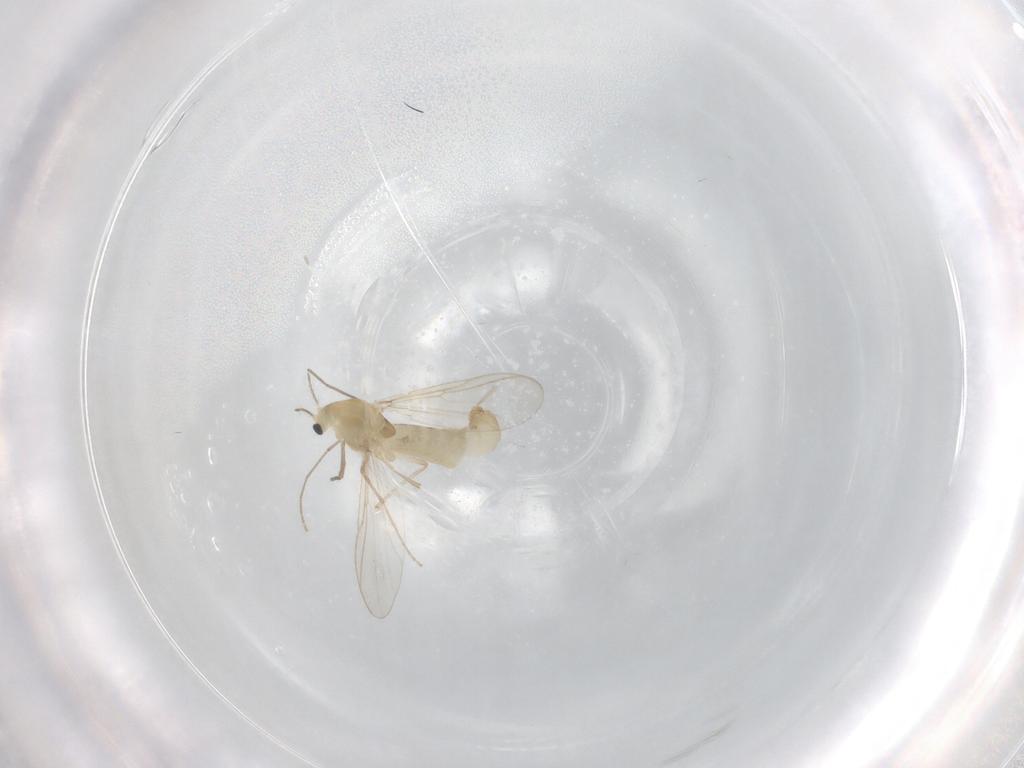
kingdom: Animalia
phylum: Arthropoda
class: Insecta
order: Diptera
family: Chironomidae
